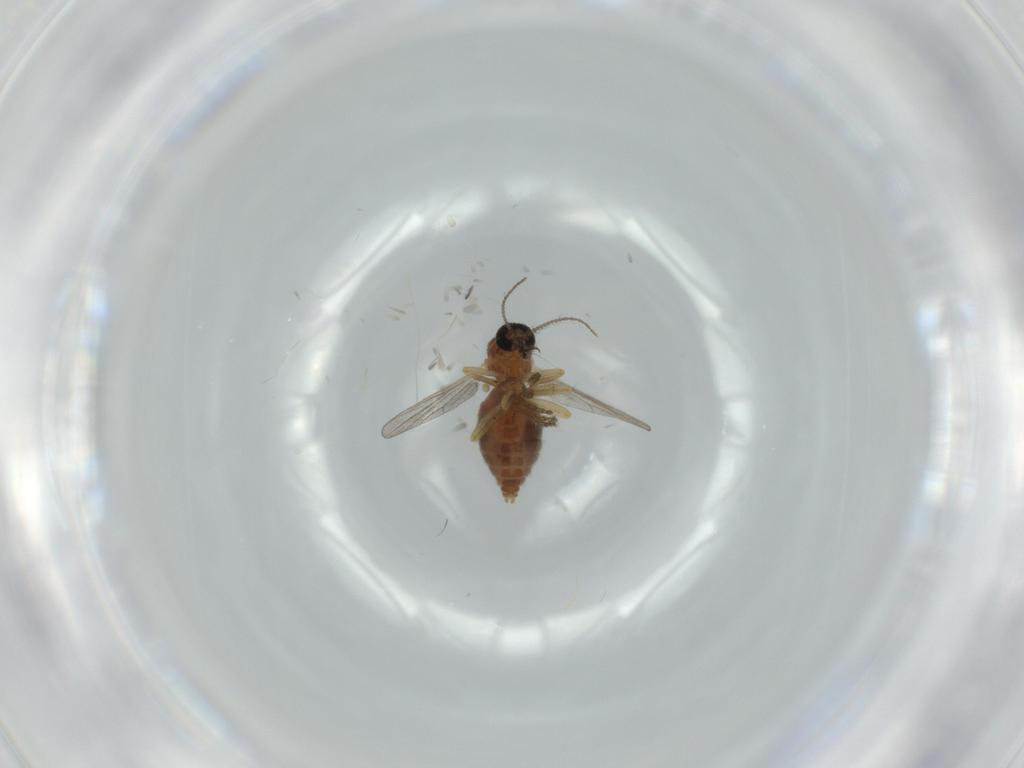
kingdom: Animalia
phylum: Arthropoda
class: Insecta
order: Diptera
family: Ceratopogonidae
